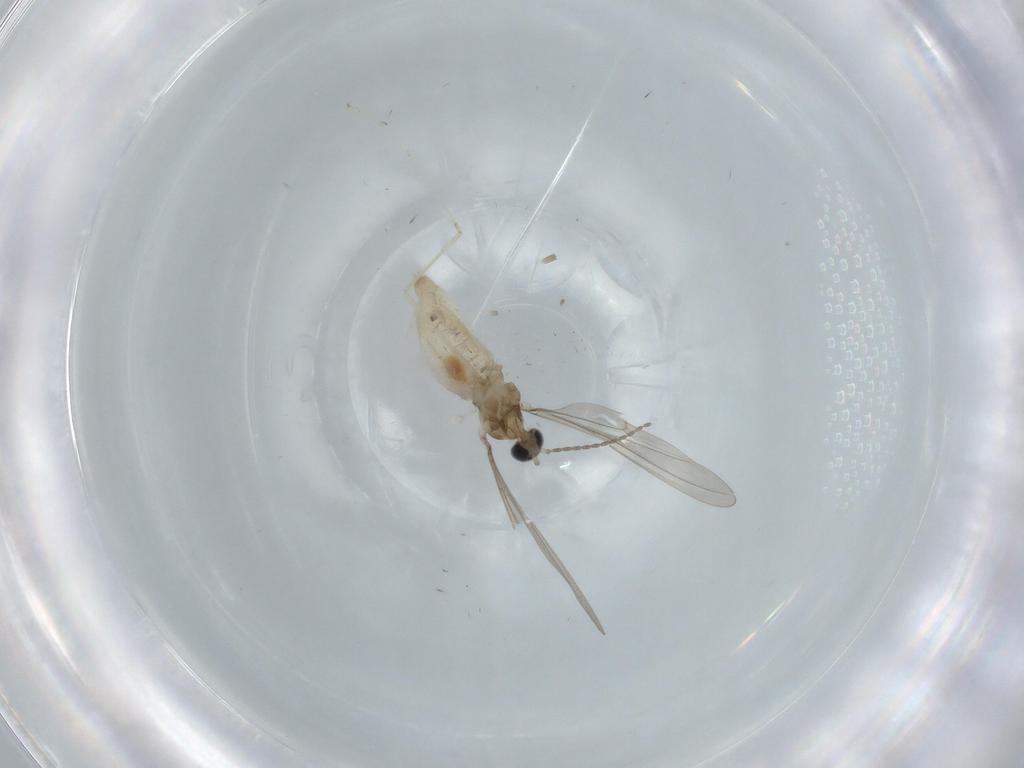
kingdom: Animalia
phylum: Arthropoda
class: Insecta
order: Diptera
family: Cecidomyiidae
